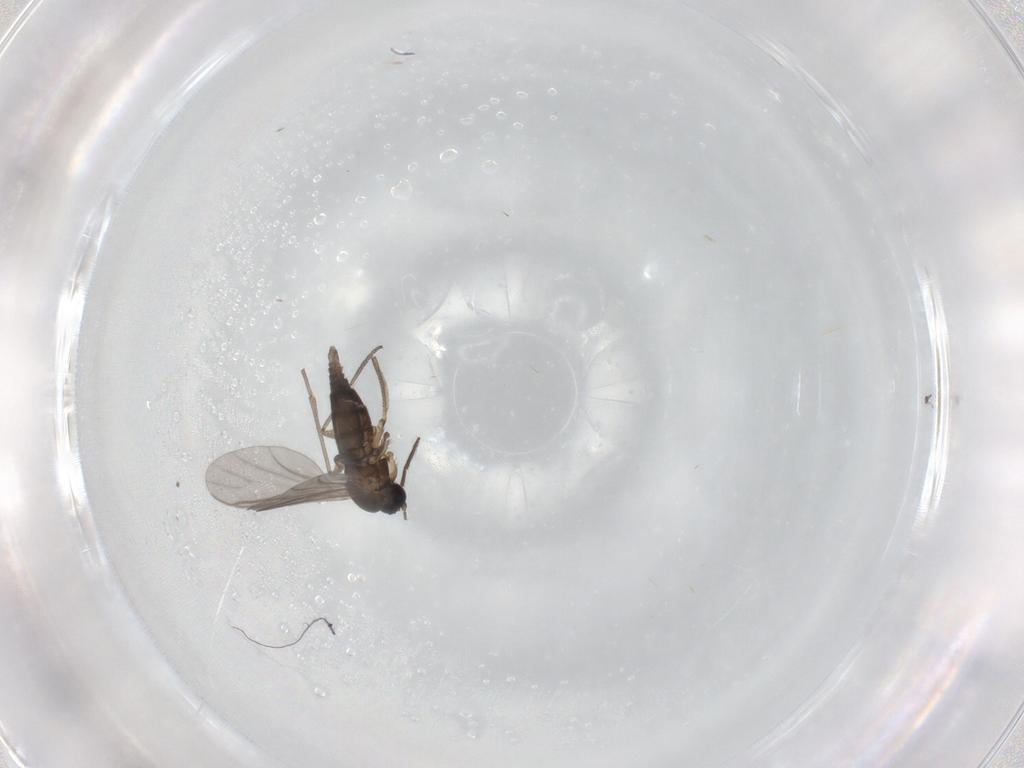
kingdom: Animalia
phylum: Arthropoda
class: Insecta
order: Diptera
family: Sciaridae
